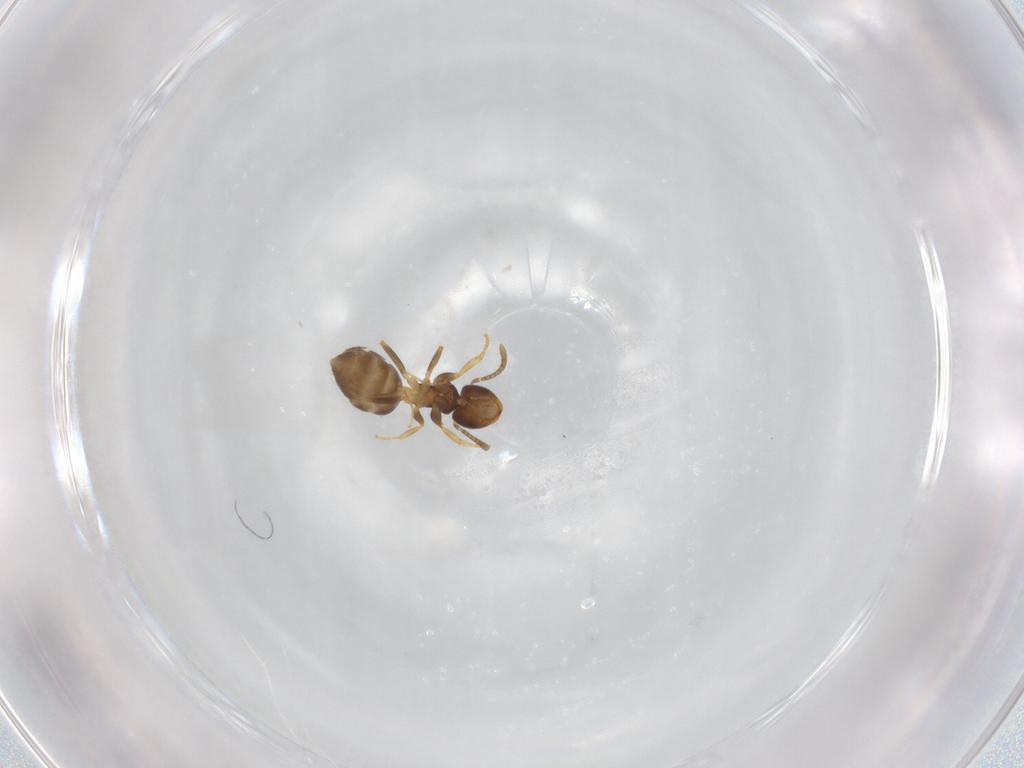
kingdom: Animalia
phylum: Arthropoda
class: Insecta
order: Hymenoptera
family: Formicidae
